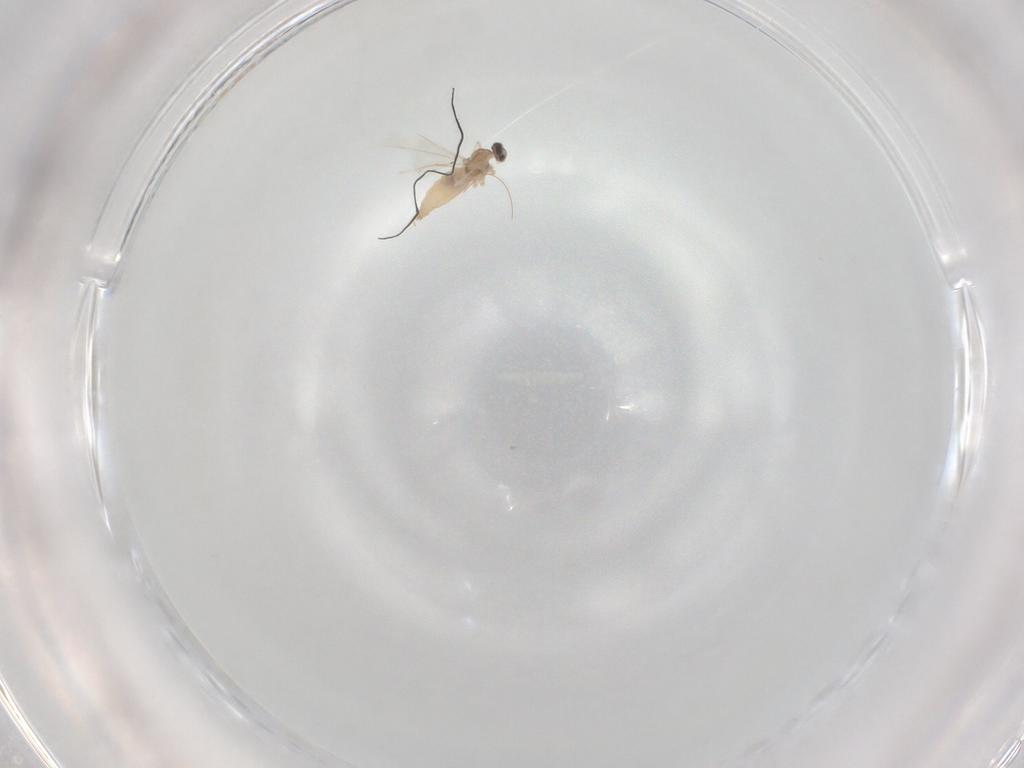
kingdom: Animalia
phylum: Arthropoda
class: Insecta
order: Diptera
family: Cecidomyiidae
